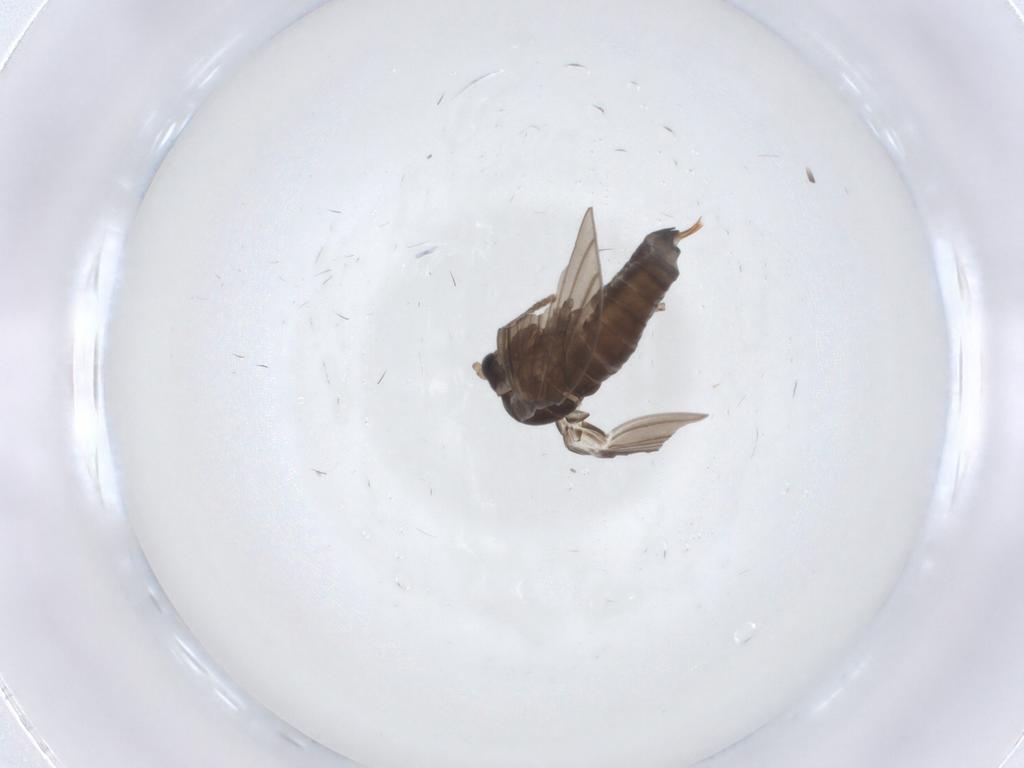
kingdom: Animalia
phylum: Arthropoda
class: Insecta
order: Diptera
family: Psychodidae
